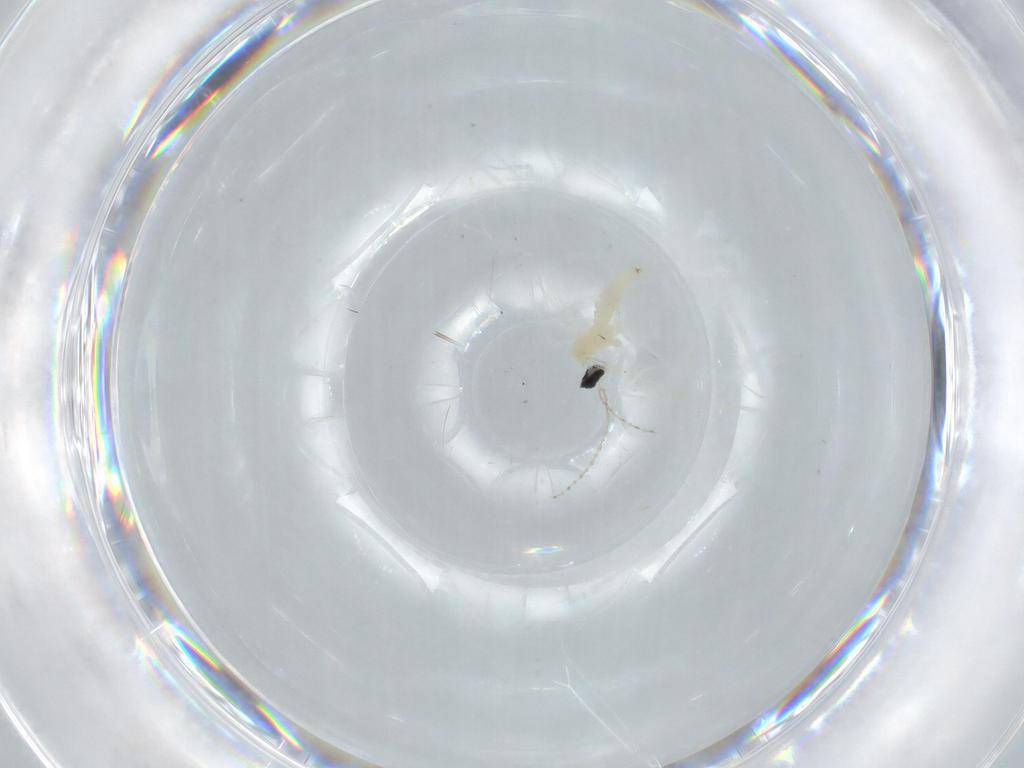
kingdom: Animalia
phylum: Arthropoda
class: Insecta
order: Diptera
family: Cecidomyiidae
